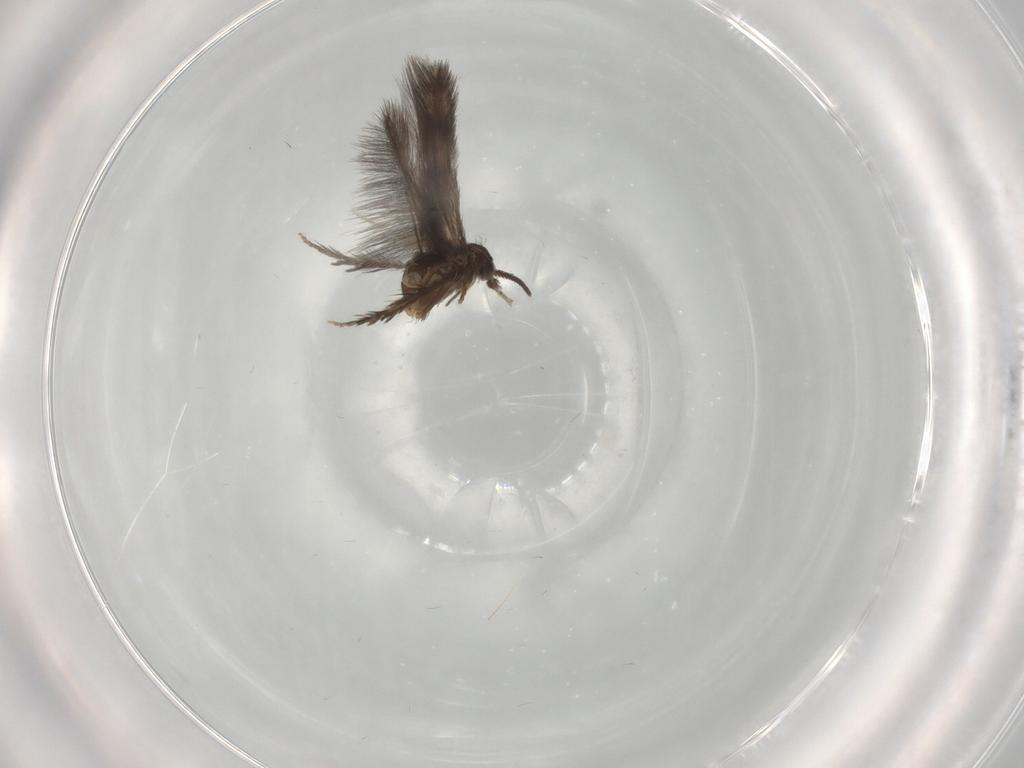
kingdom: Animalia
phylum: Arthropoda
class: Insecta
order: Trichoptera
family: Hydroptilidae
